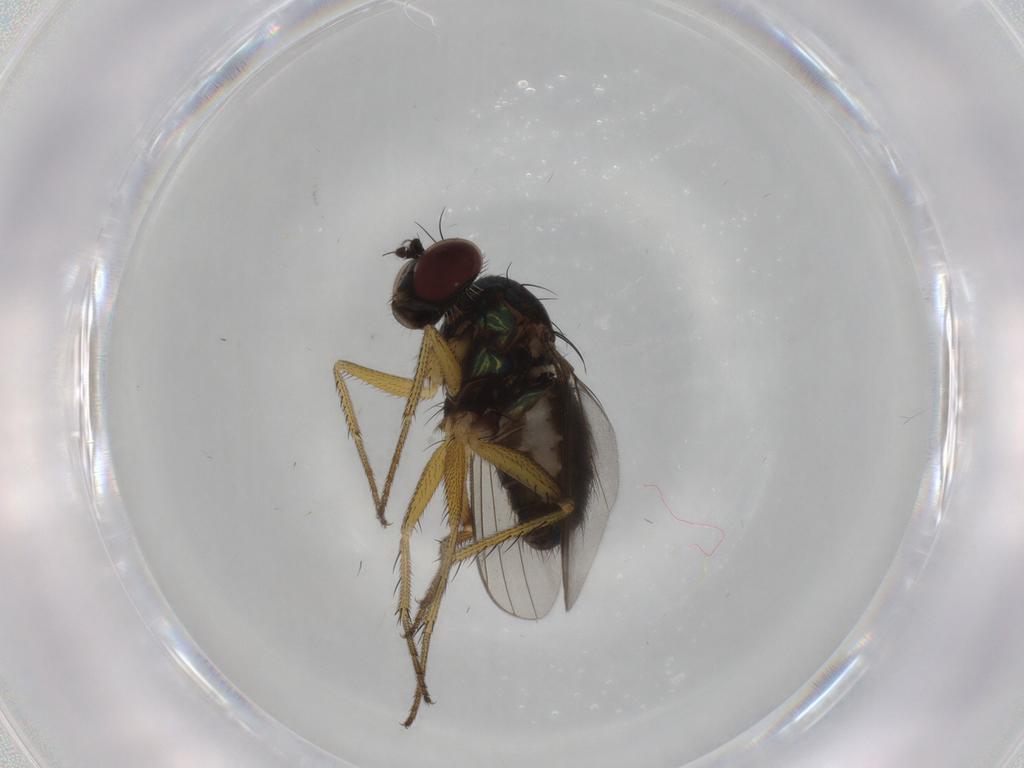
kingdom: Animalia
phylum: Arthropoda
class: Insecta
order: Diptera
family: Dolichopodidae
